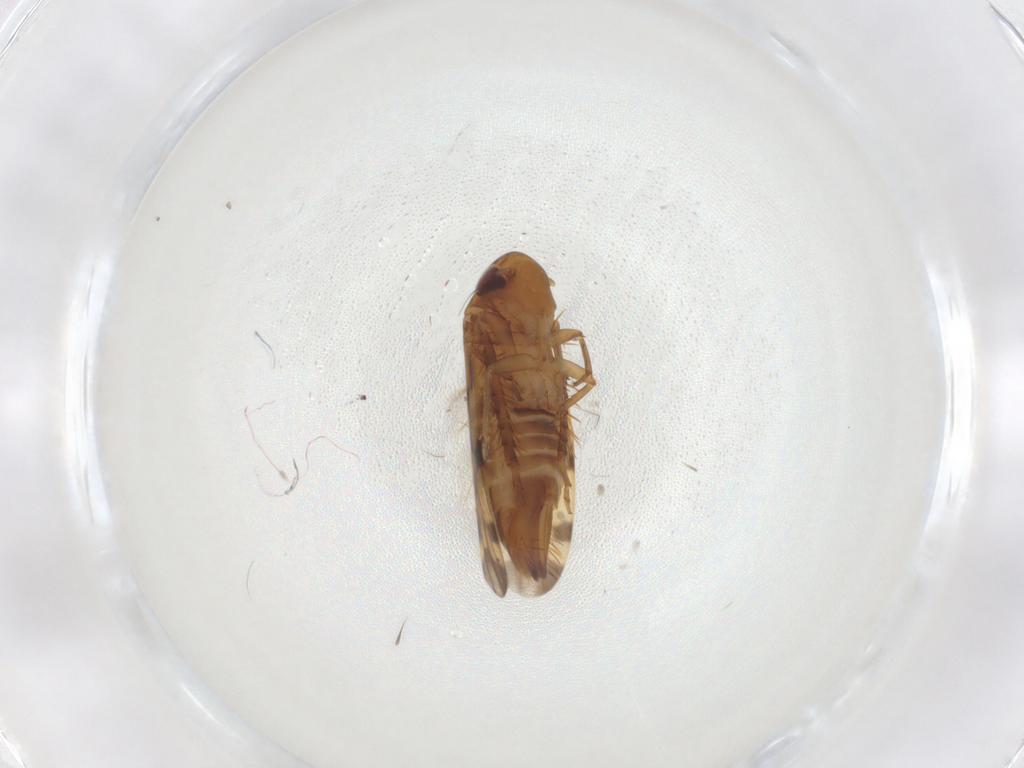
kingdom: Animalia
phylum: Arthropoda
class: Insecta
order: Hemiptera
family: Cicadellidae
